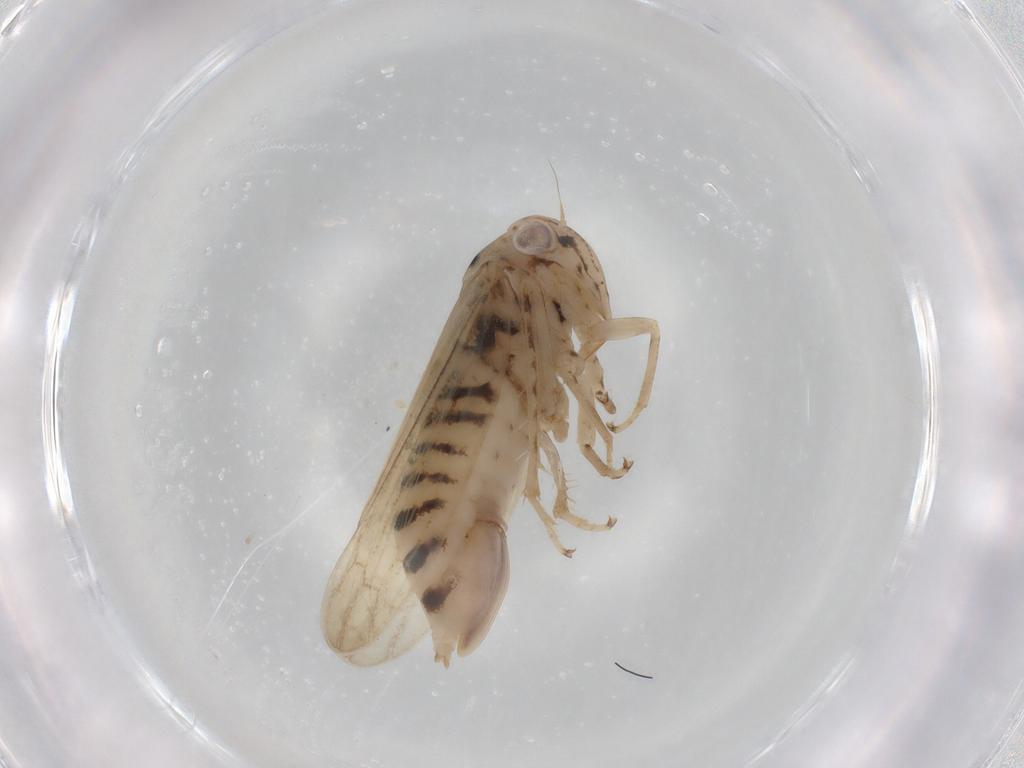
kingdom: Animalia
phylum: Arthropoda
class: Insecta
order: Hemiptera
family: Cicadellidae
